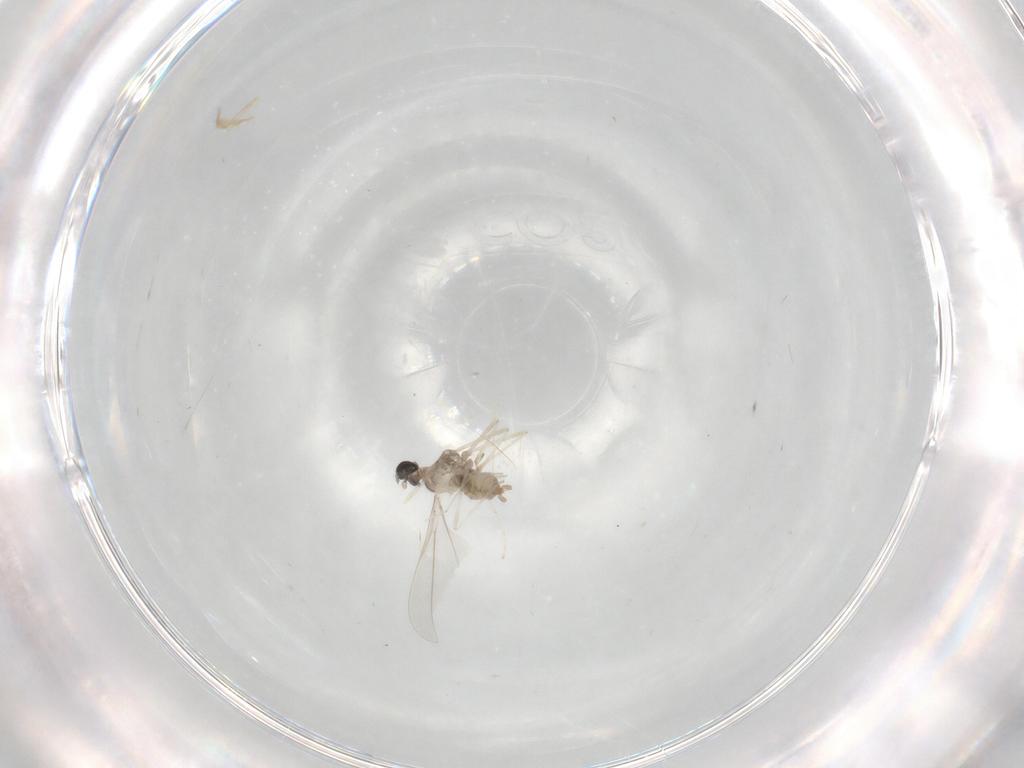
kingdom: Animalia
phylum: Arthropoda
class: Insecta
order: Diptera
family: Cecidomyiidae
